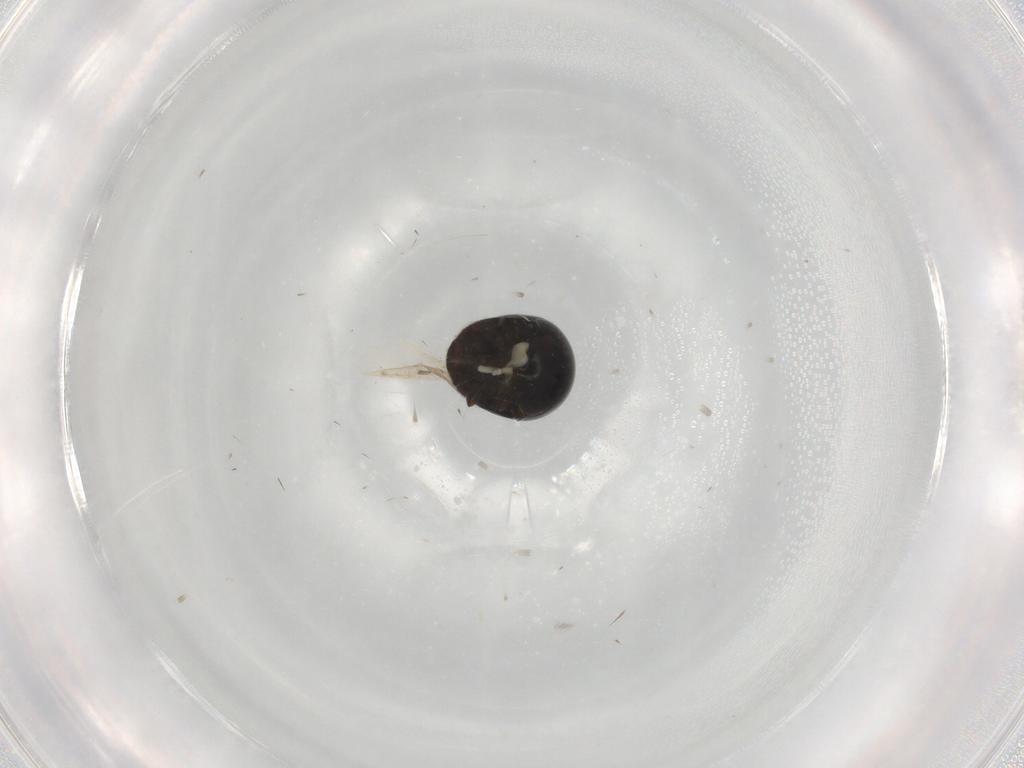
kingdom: Animalia
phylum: Arthropoda
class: Insecta
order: Coleoptera
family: Cybocephalidae
